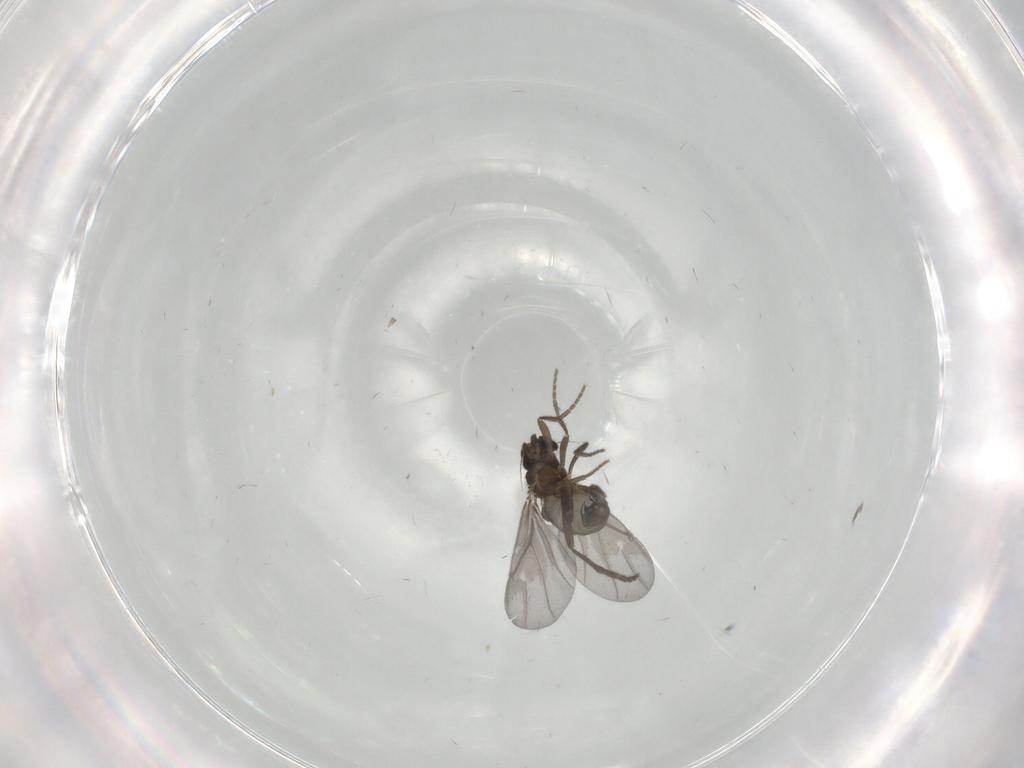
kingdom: Animalia
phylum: Arthropoda
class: Insecta
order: Diptera
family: Phoridae
